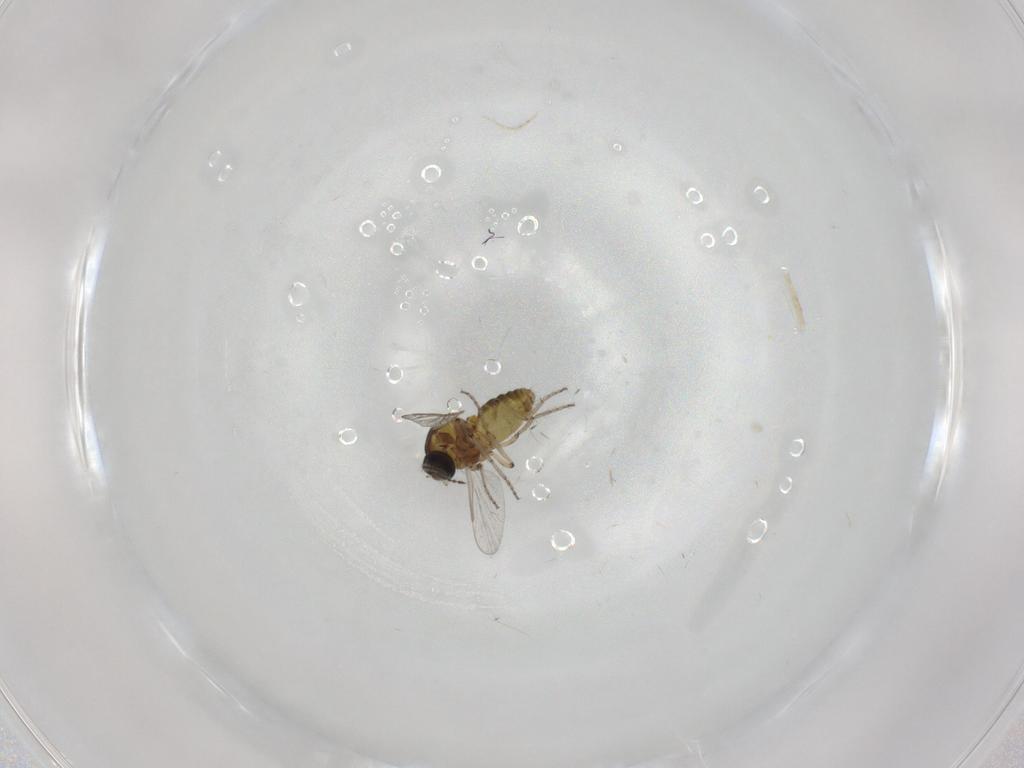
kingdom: Animalia
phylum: Arthropoda
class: Insecta
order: Diptera
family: Ceratopogonidae
